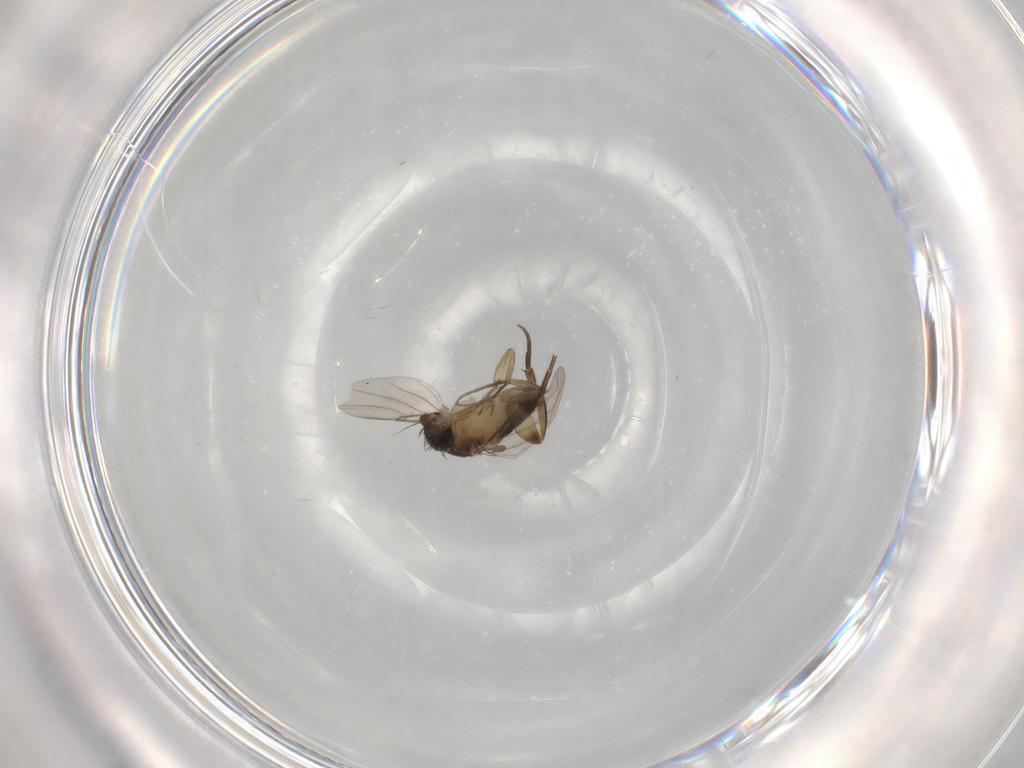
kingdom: Animalia
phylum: Arthropoda
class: Insecta
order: Diptera
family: Phoridae
